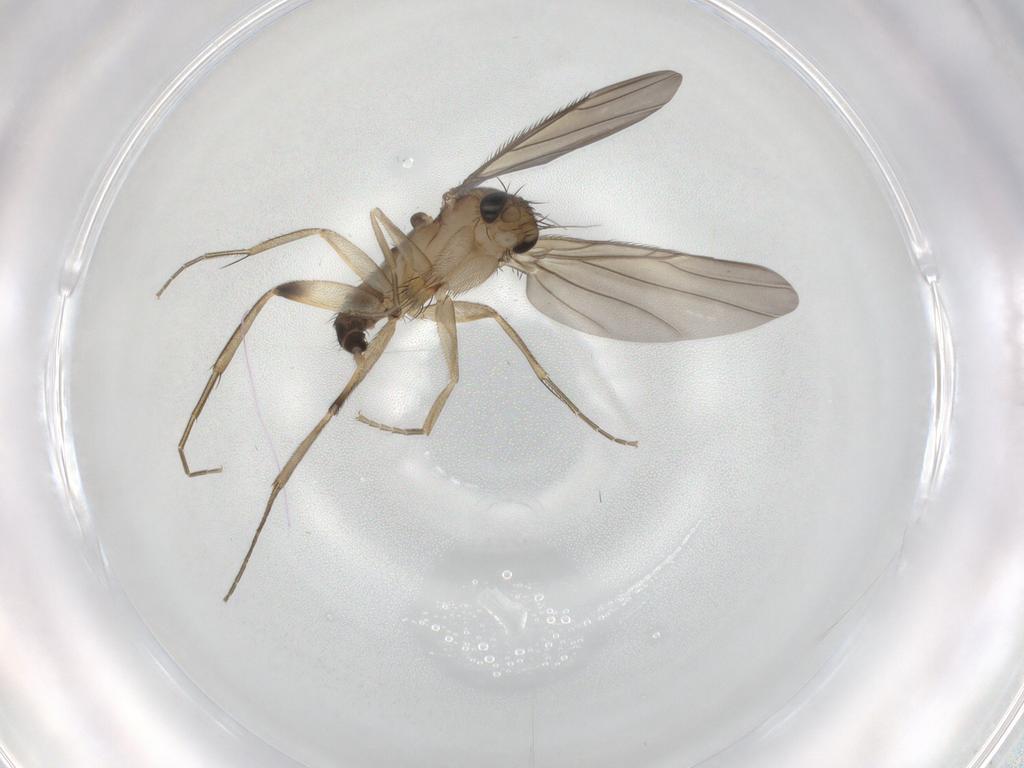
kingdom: Animalia
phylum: Arthropoda
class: Insecta
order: Diptera
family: Phoridae
